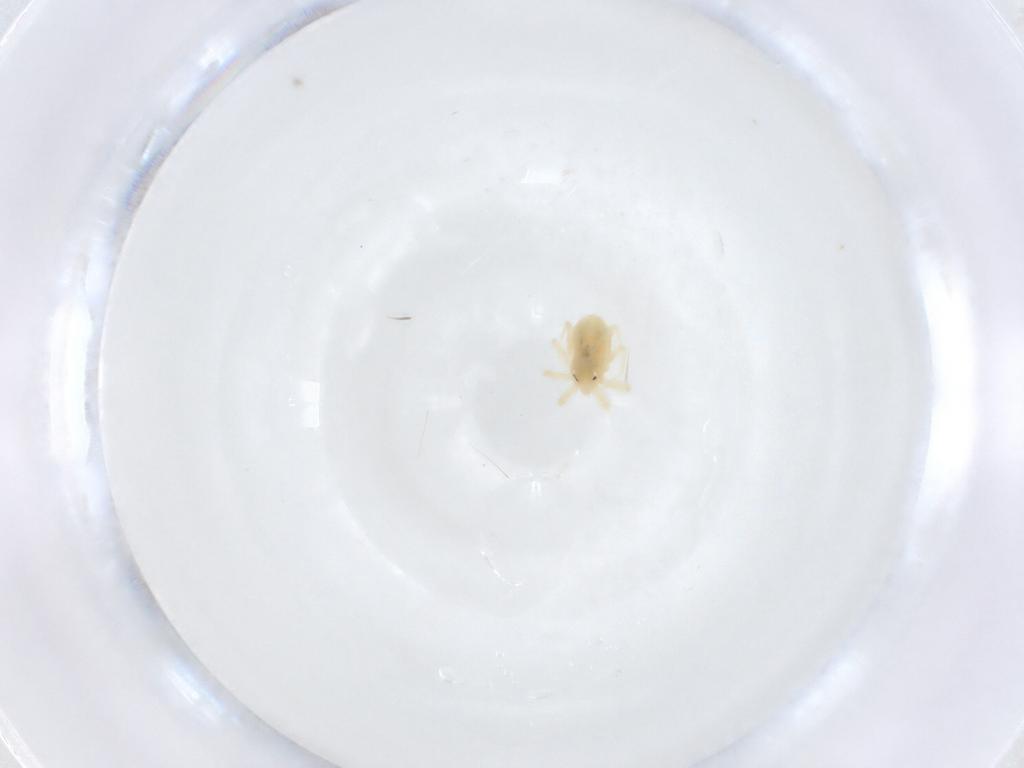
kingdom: Animalia
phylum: Arthropoda
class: Arachnida
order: Trombidiformes
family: Anystidae
